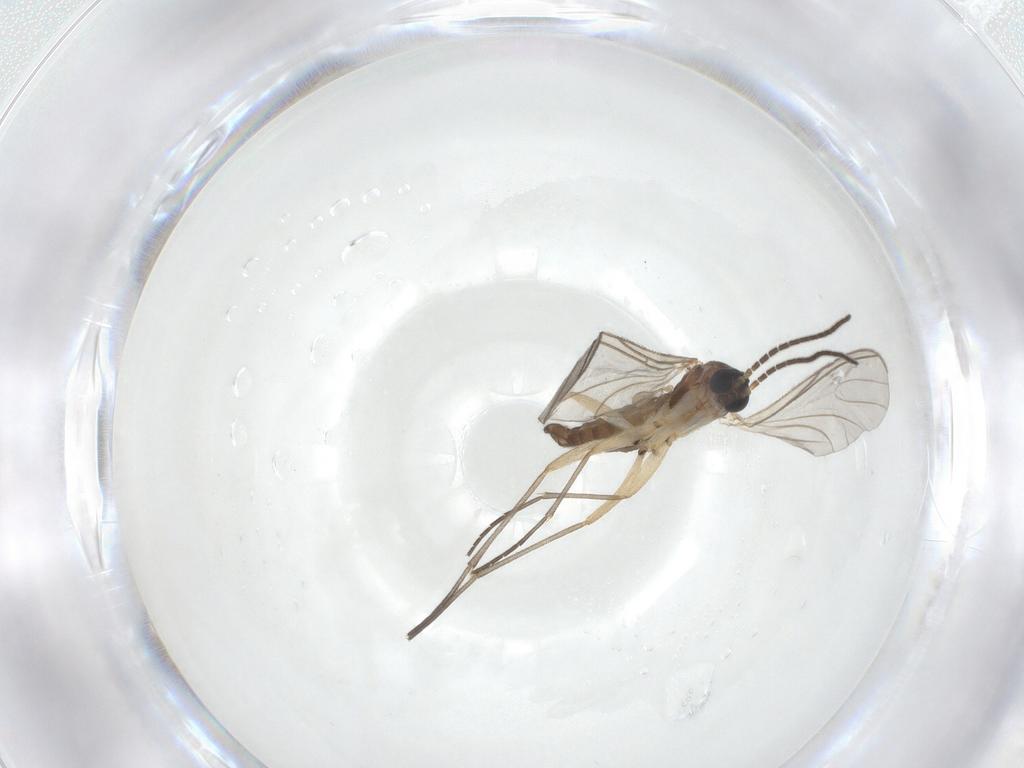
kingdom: Animalia
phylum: Arthropoda
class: Insecta
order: Diptera
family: Sciaridae
